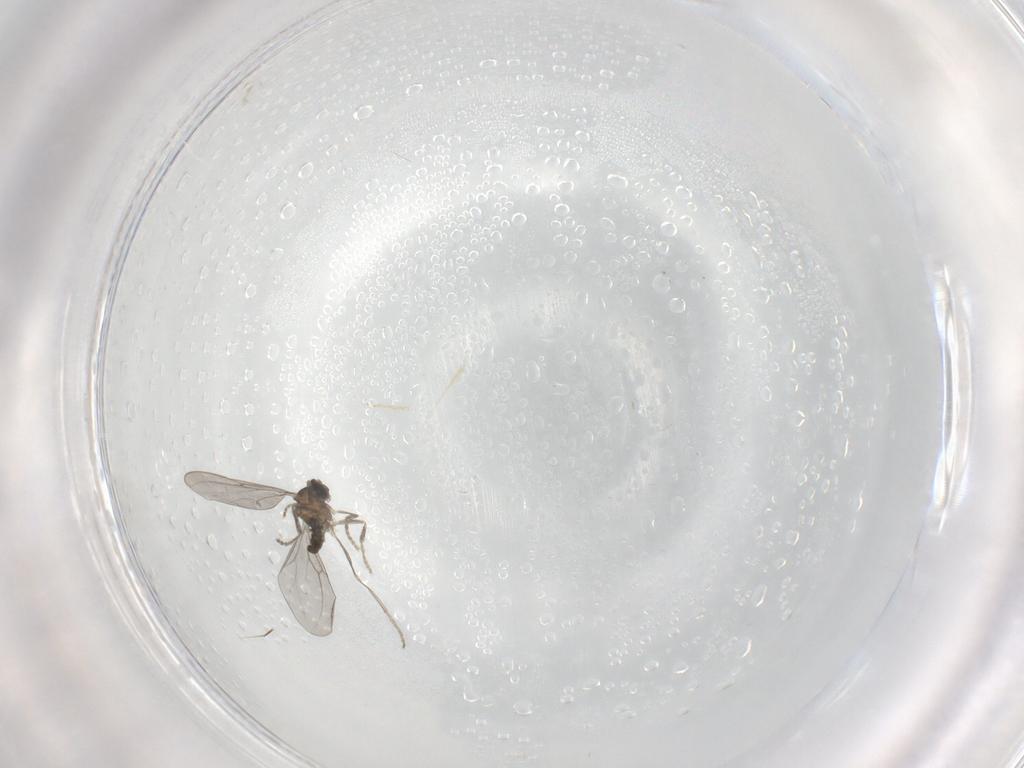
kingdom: Animalia
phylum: Arthropoda
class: Insecta
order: Diptera
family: Cecidomyiidae
